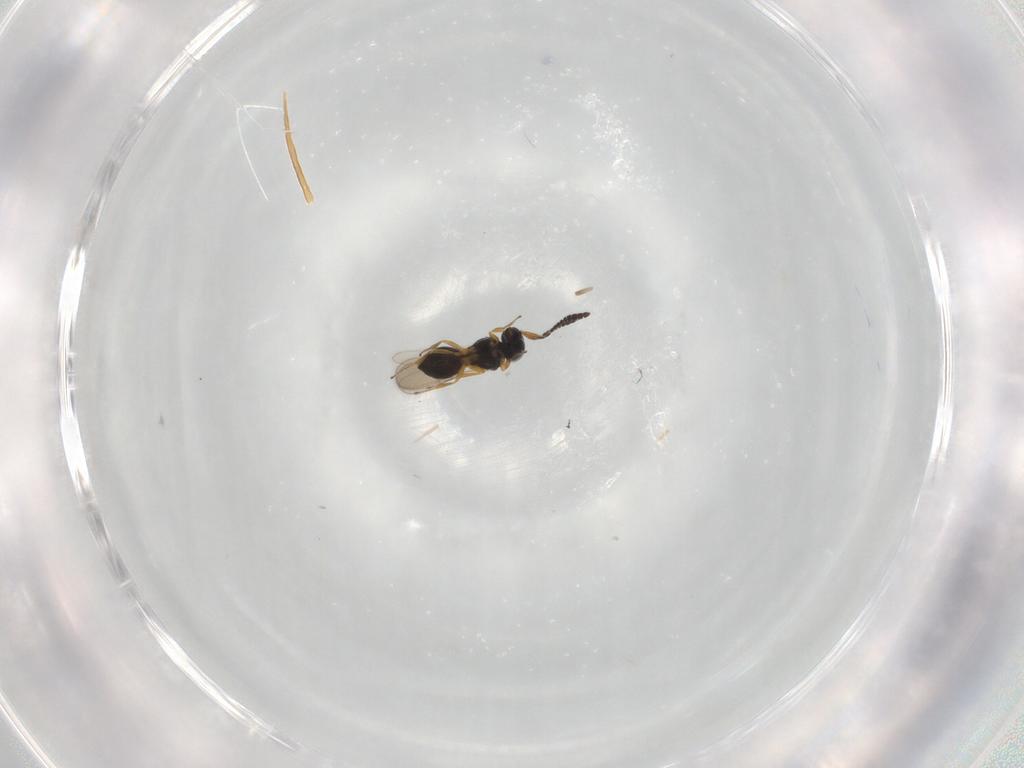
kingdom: Animalia
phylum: Arthropoda
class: Insecta
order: Hymenoptera
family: Scelionidae
